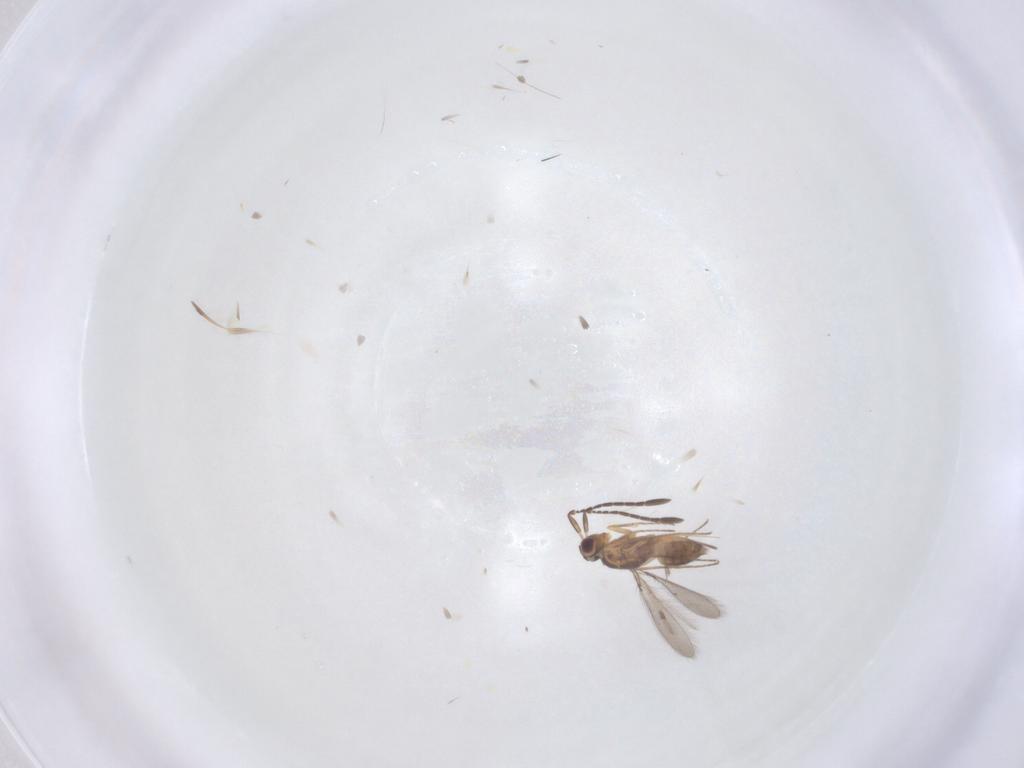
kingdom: Animalia
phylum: Arthropoda
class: Insecta
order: Hymenoptera
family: Mymaridae
